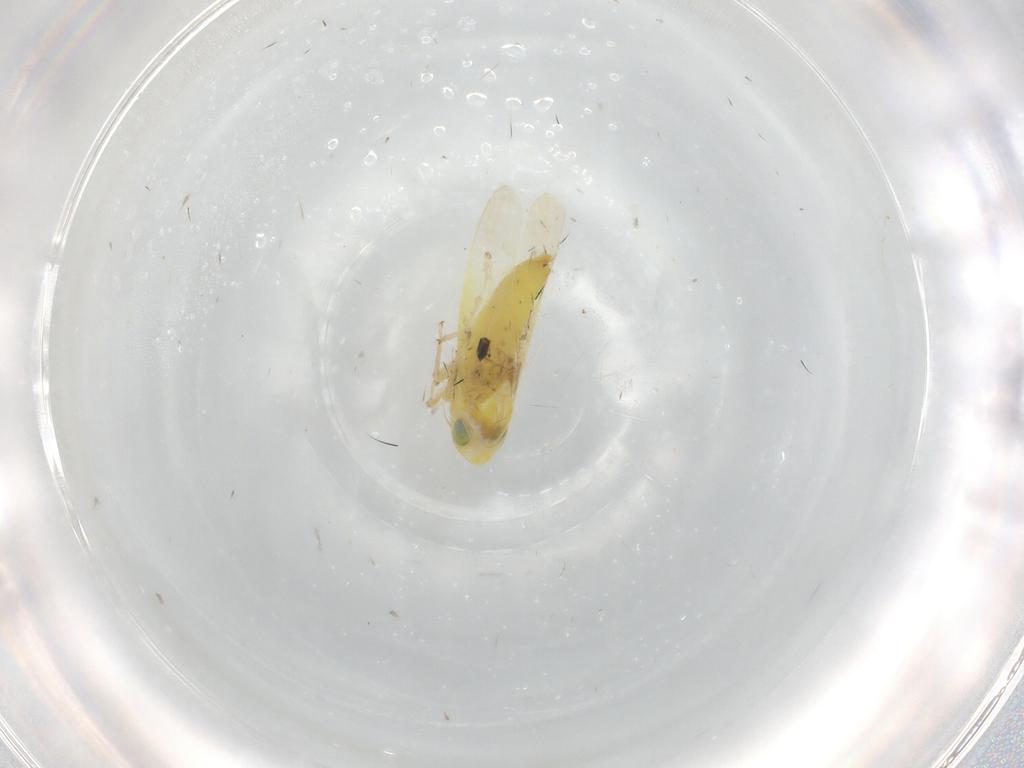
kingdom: Animalia
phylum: Arthropoda
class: Insecta
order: Hemiptera
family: Cicadellidae
